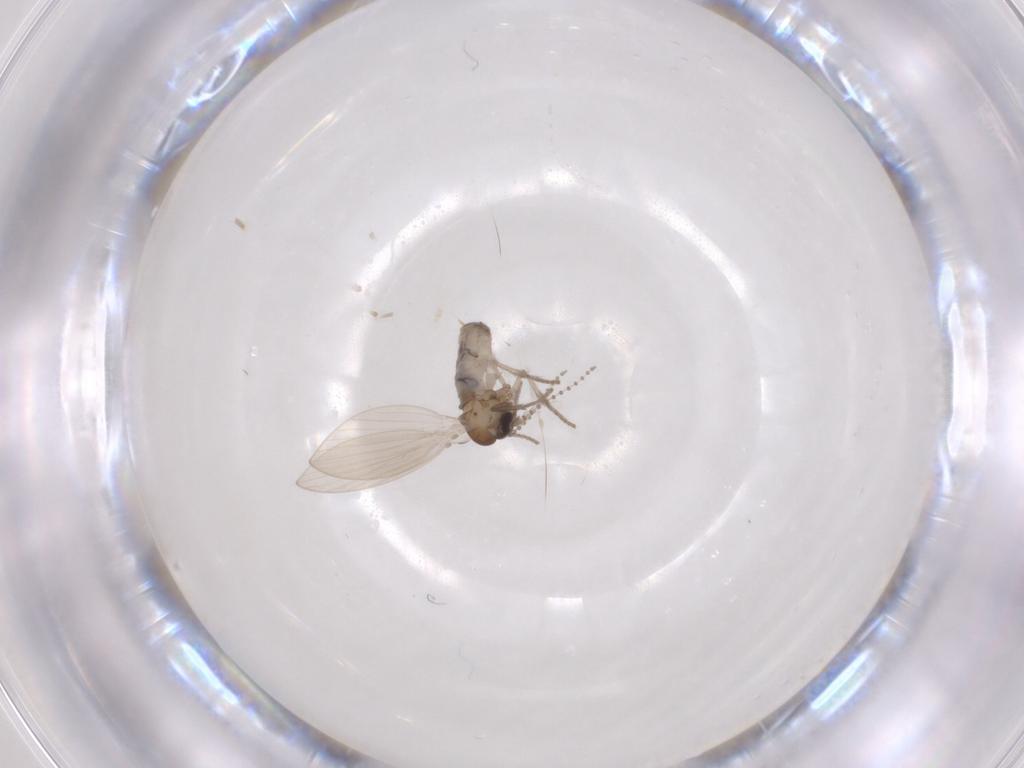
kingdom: Animalia
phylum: Arthropoda
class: Insecta
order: Diptera
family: Psychodidae
